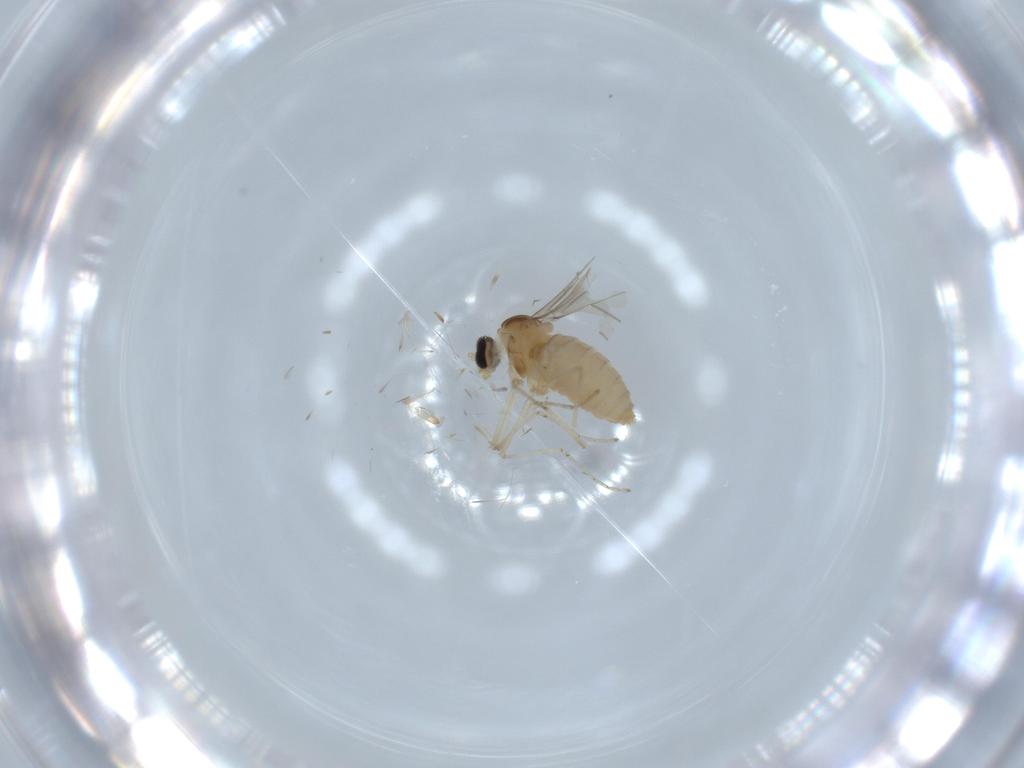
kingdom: Animalia
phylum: Arthropoda
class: Insecta
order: Diptera
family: Cecidomyiidae
